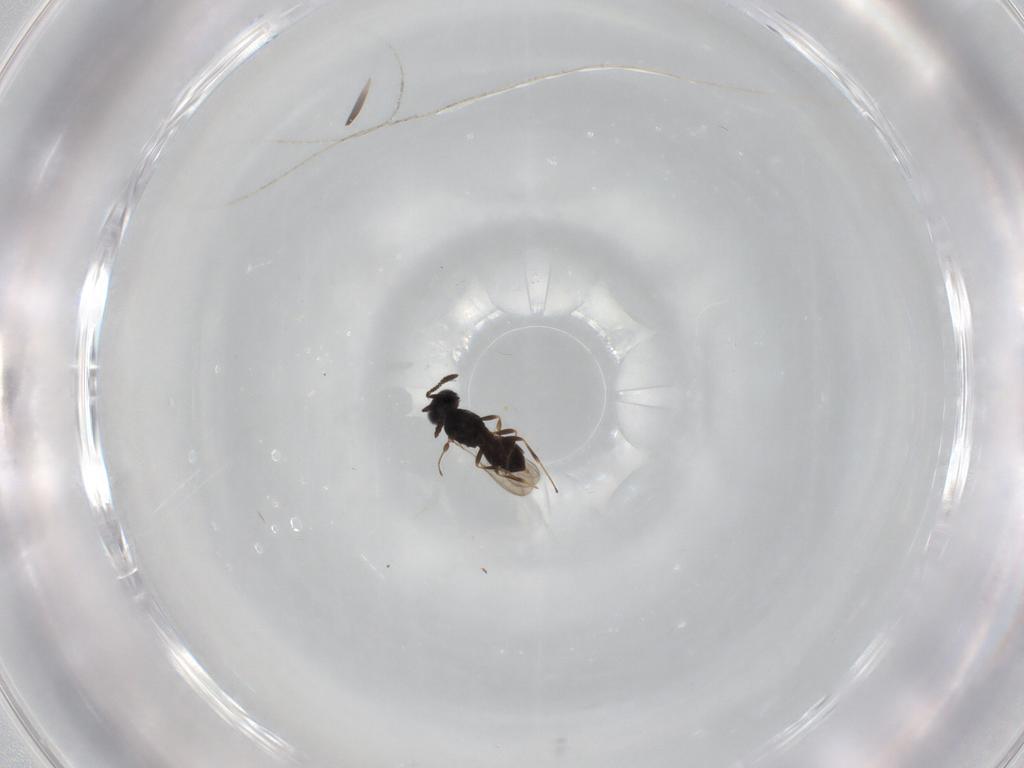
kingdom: Animalia
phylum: Arthropoda
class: Insecta
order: Hymenoptera
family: Scelionidae
